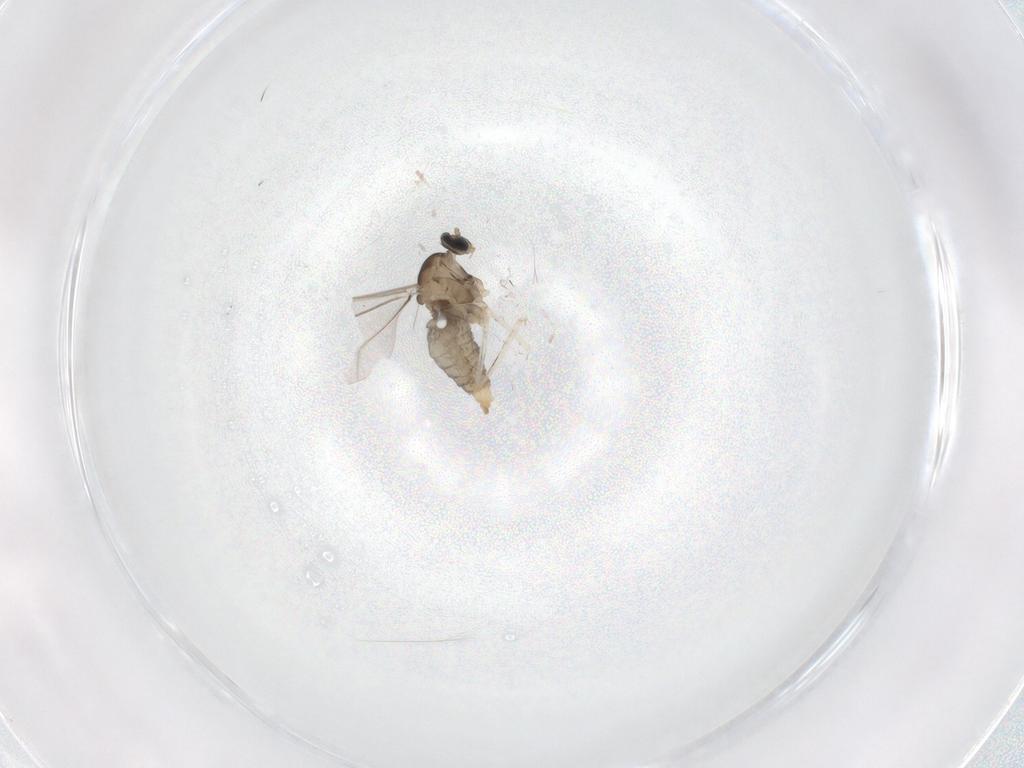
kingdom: Animalia
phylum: Arthropoda
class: Insecta
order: Diptera
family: Cecidomyiidae
